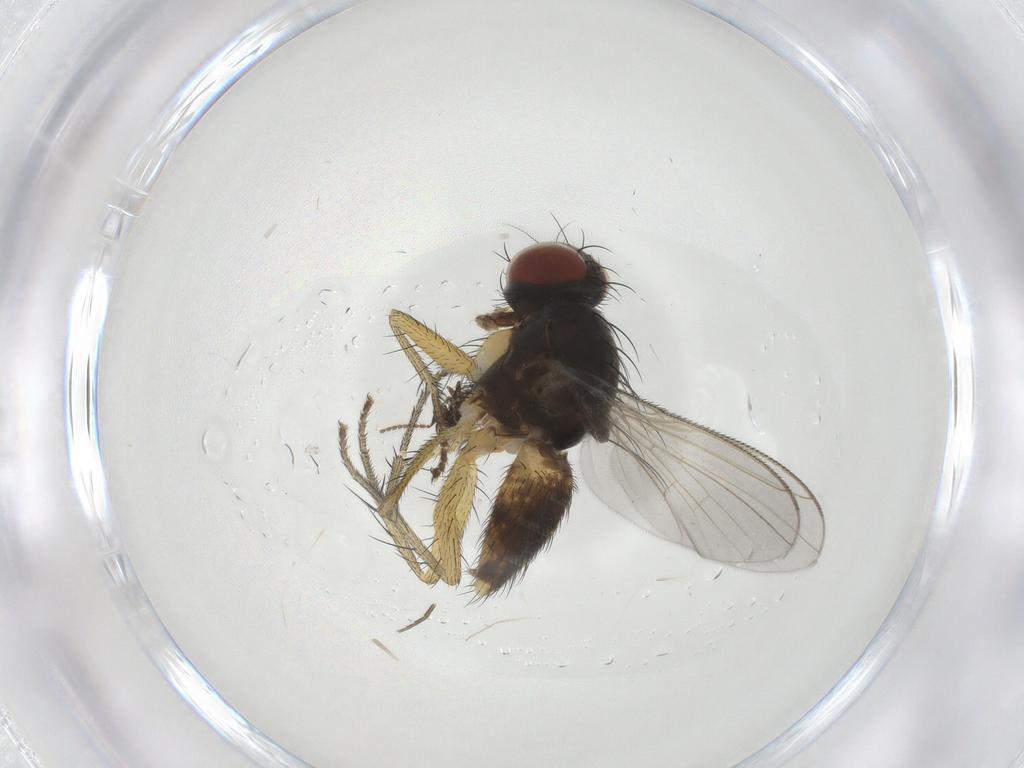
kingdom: Animalia
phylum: Arthropoda
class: Insecta
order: Diptera
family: Muscidae
